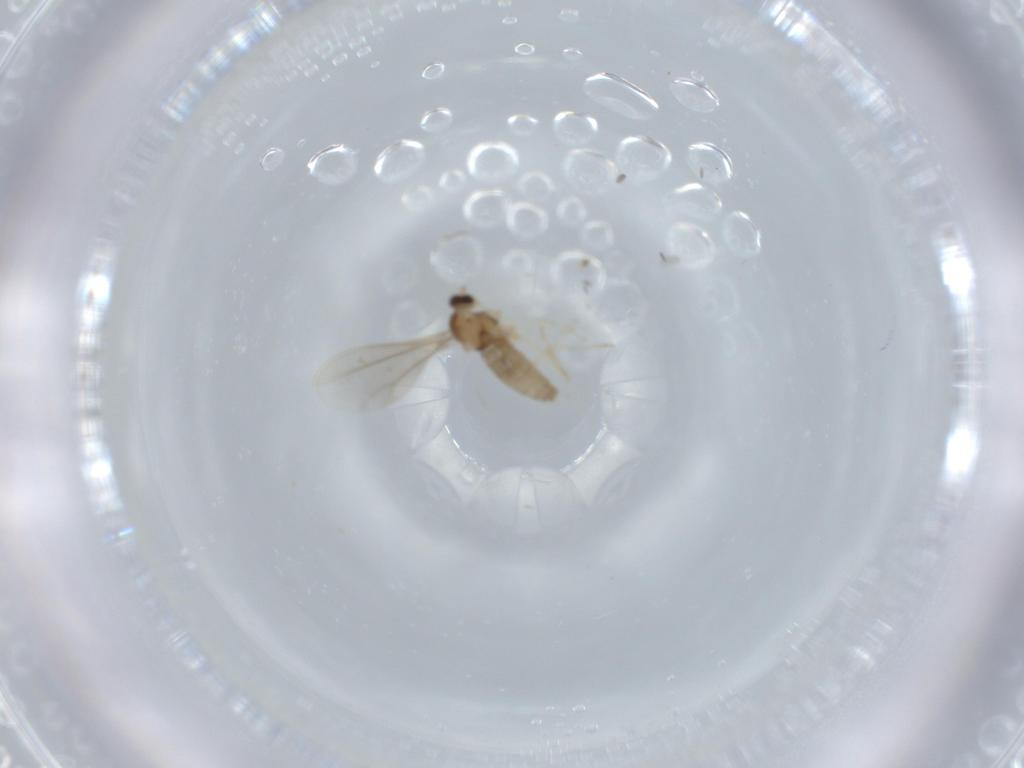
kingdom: Animalia
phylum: Arthropoda
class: Insecta
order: Diptera
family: Cecidomyiidae
